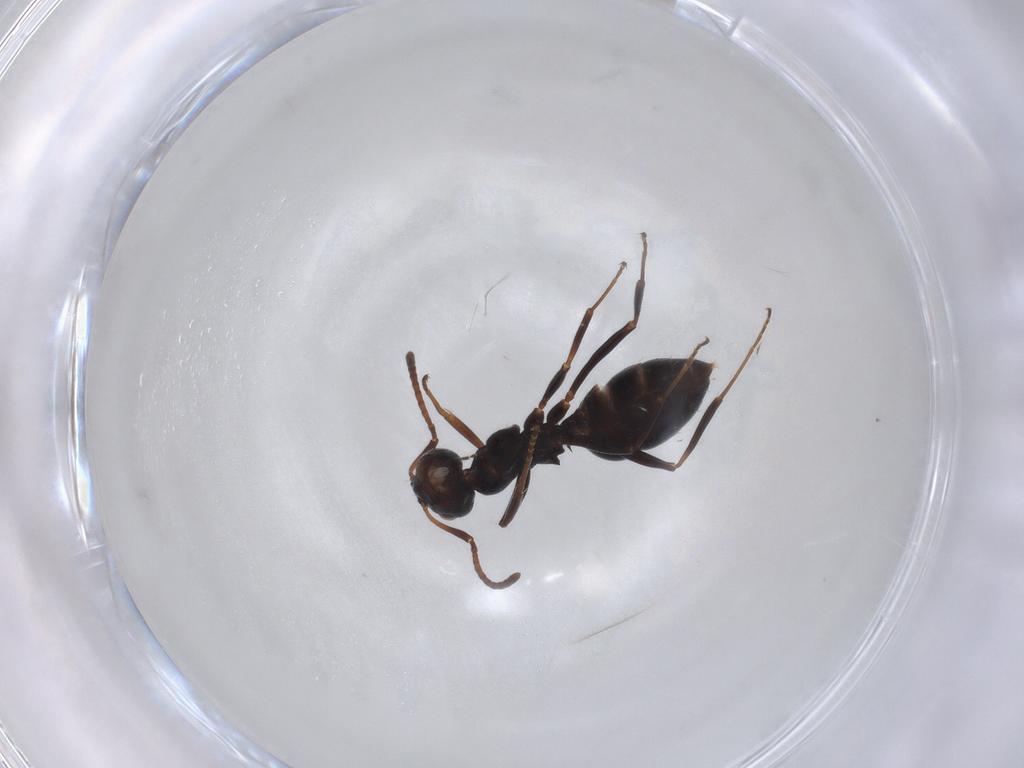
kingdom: Animalia
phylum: Arthropoda
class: Insecta
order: Hymenoptera
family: Formicidae
